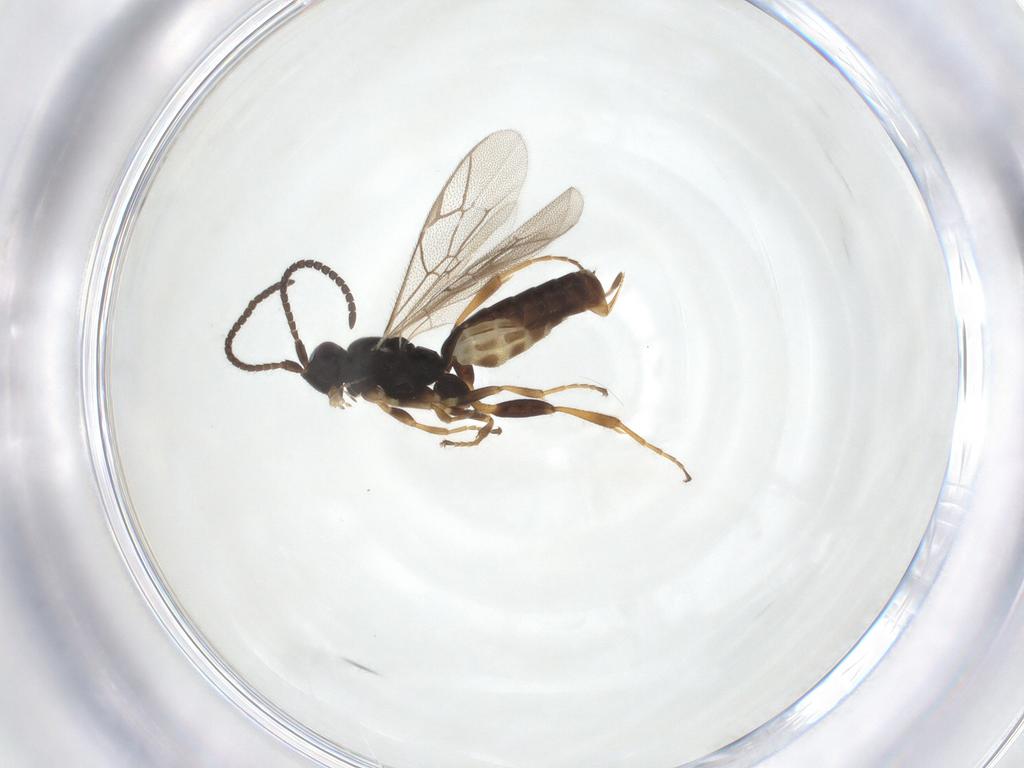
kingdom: Animalia
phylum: Arthropoda
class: Insecta
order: Hymenoptera
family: Ichneumonidae
